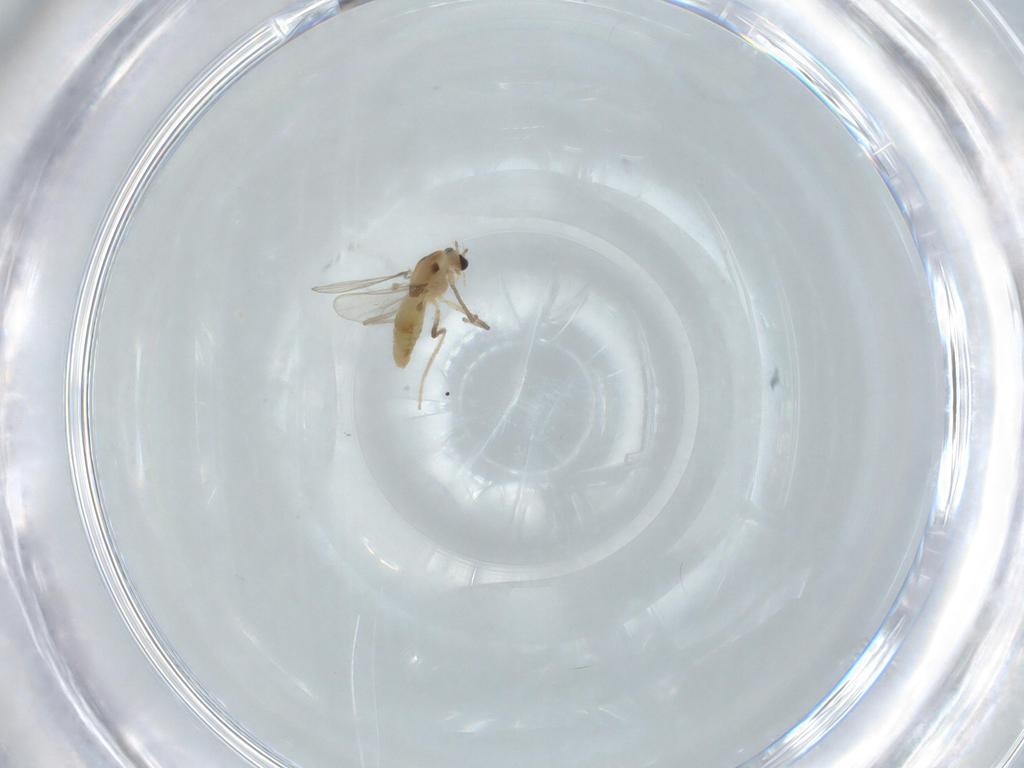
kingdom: Animalia
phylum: Arthropoda
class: Insecta
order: Diptera
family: Chironomidae
